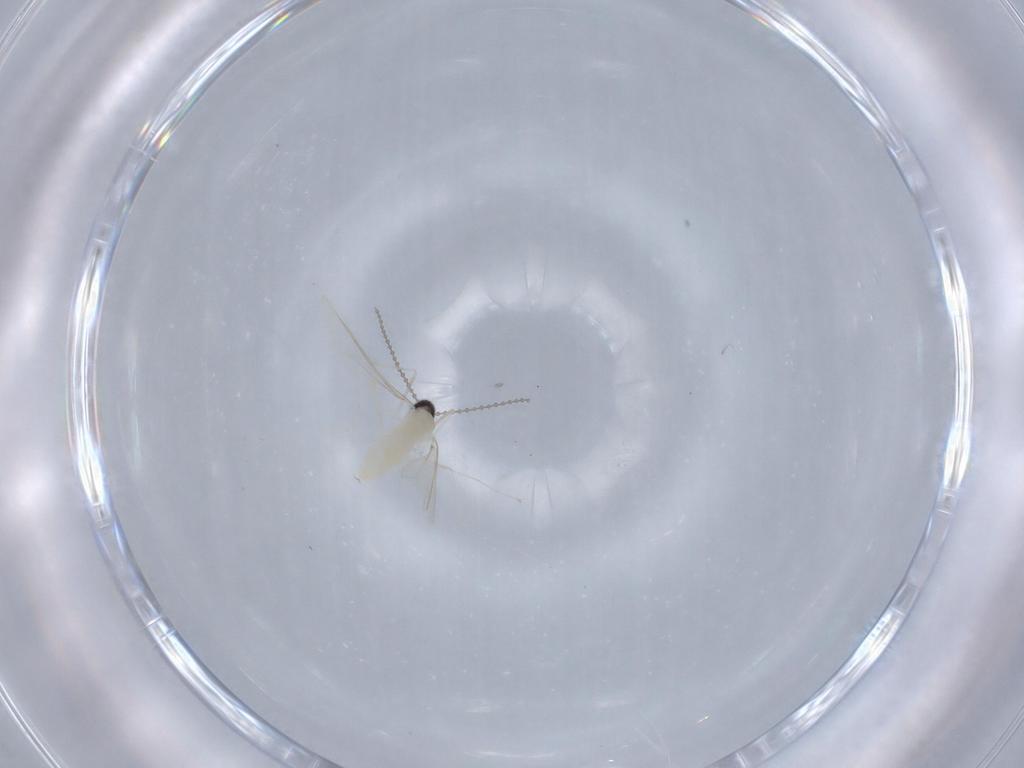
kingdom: Animalia
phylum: Arthropoda
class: Insecta
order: Diptera
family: Cecidomyiidae
